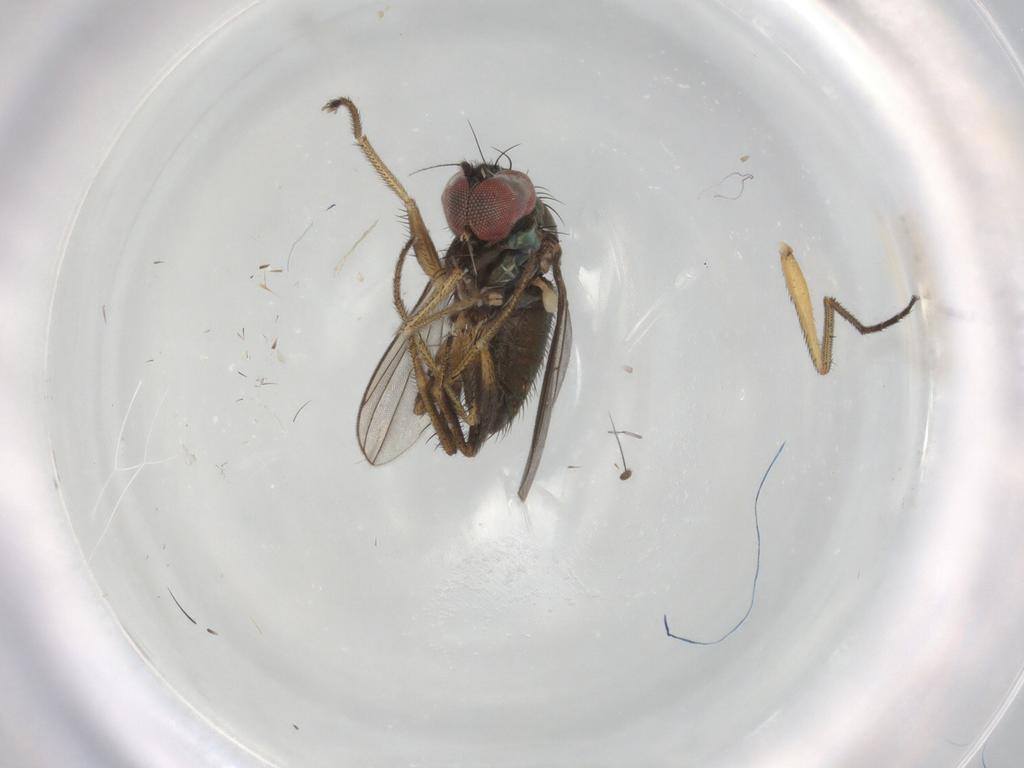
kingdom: Animalia
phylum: Arthropoda
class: Insecta
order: Diptera
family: Dolichopodidae
